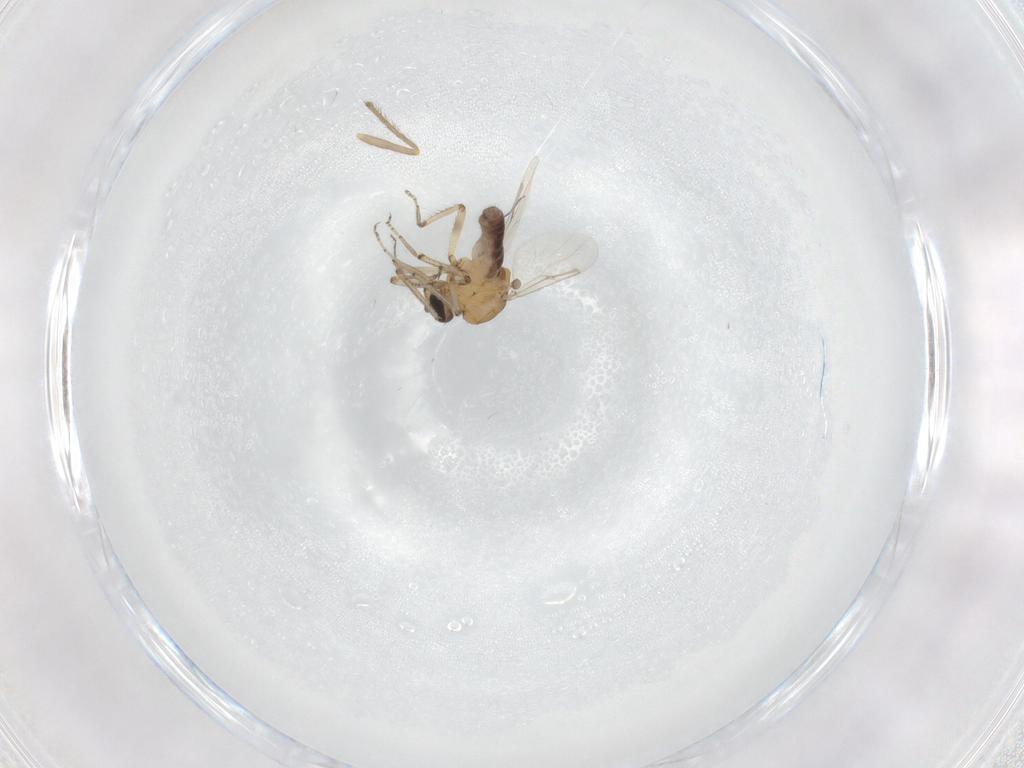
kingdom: Animalia
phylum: Arthropoda
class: Insecta
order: Diptera
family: Ceratopogonidae
